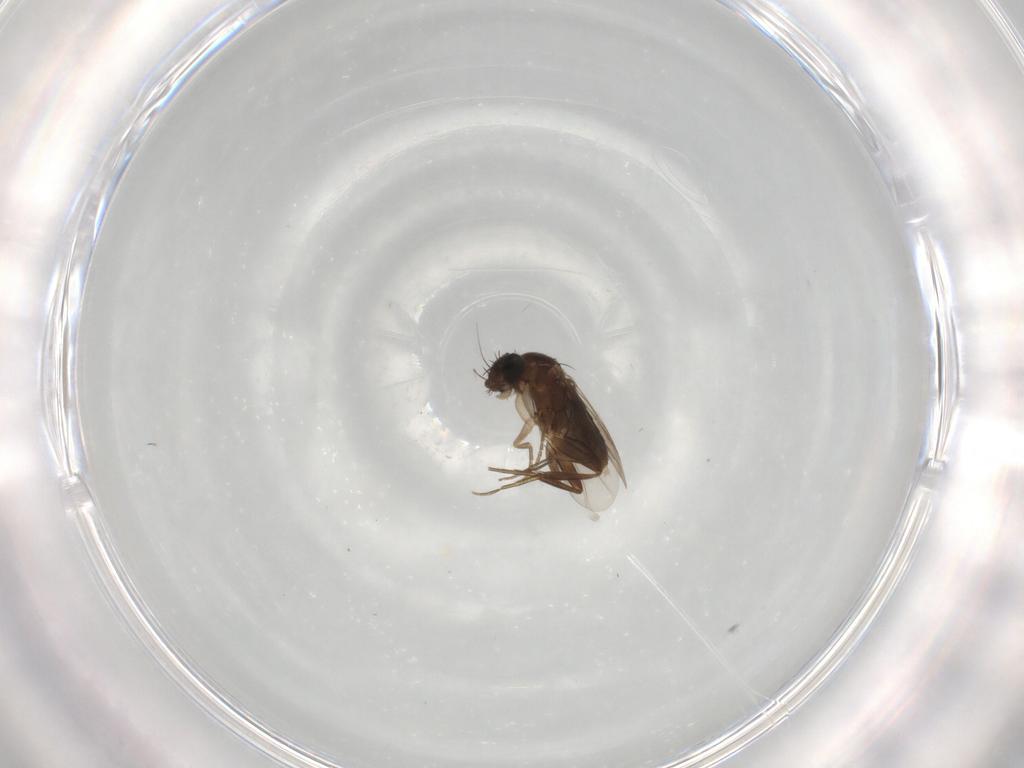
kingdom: Animalia
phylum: Arthropoda
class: Insecta
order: Diptera
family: Phoridae
